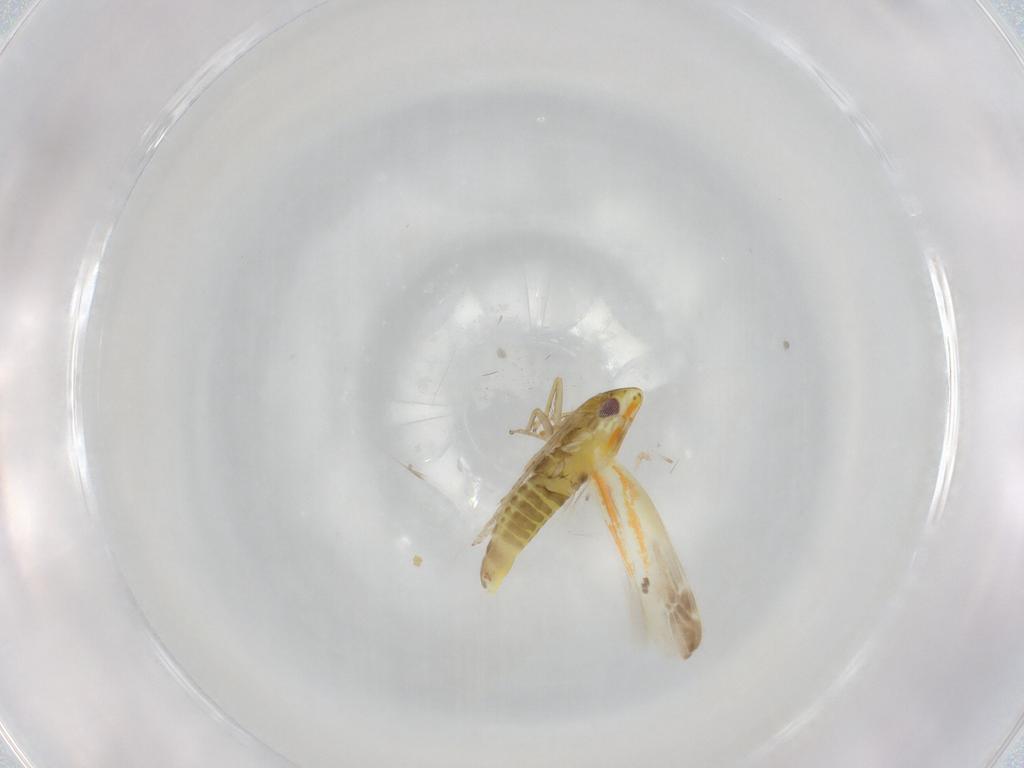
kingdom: Animalia
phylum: Arthropoda
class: Insecta
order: Hemiptera
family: Cicadellidae
